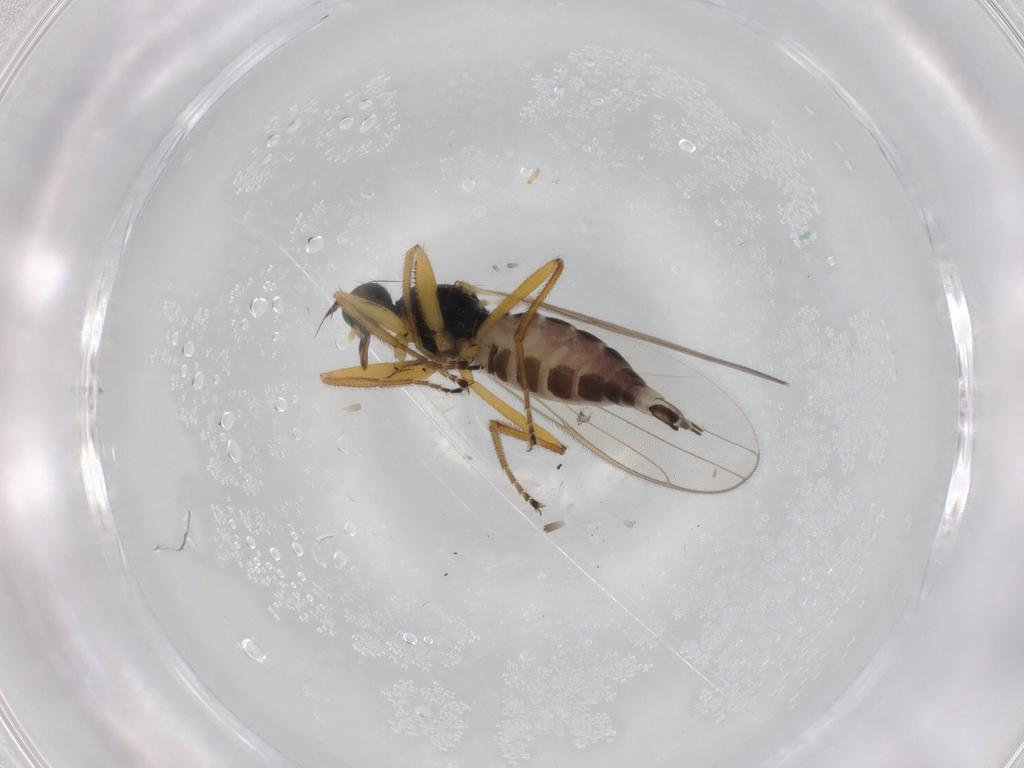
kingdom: Animalia
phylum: Arthropoda
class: Insecta
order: Diptera
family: Hybotidae
